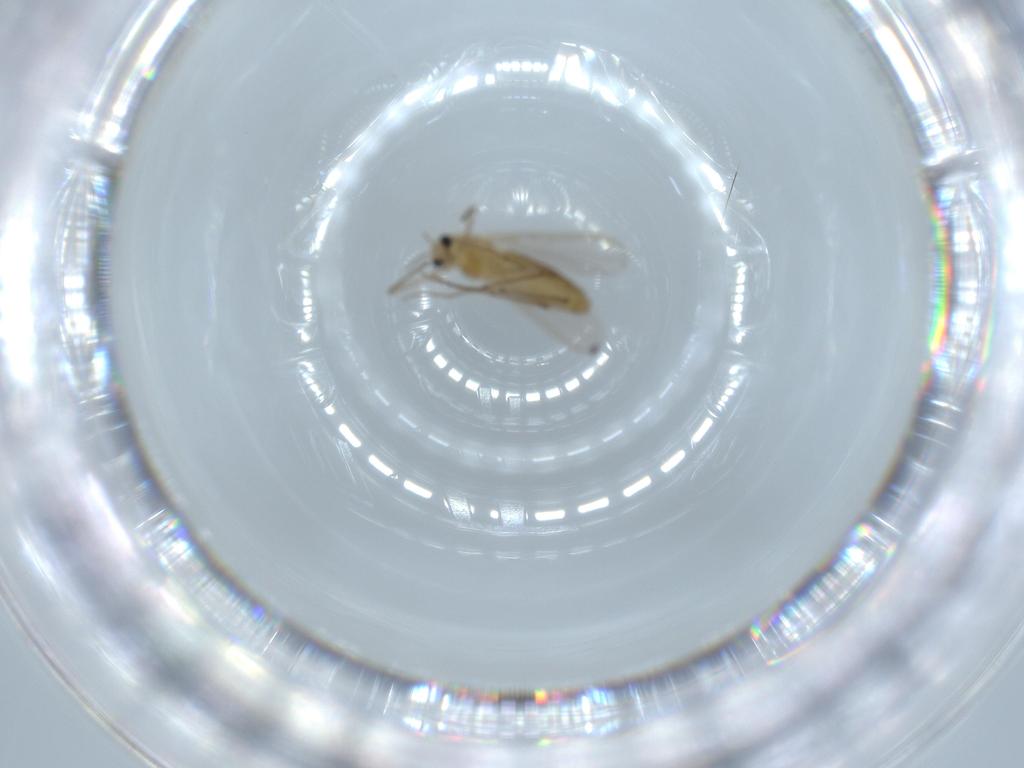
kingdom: Animalia
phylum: Arthropoda
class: Insecta
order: Diptera
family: Chironomidae
